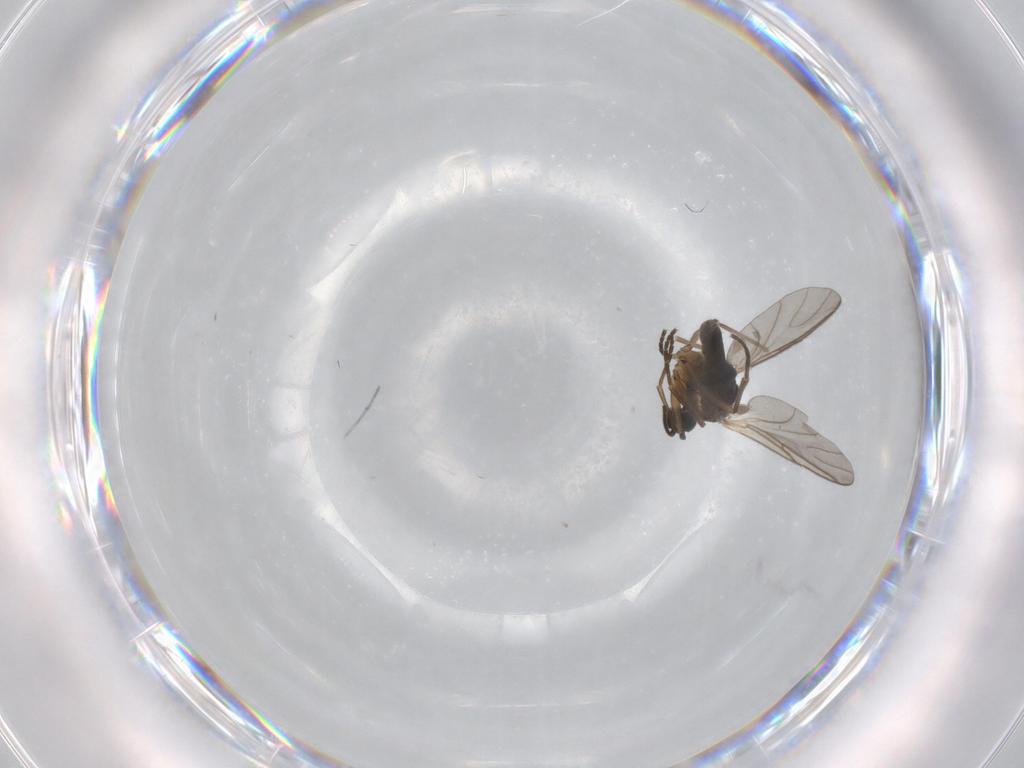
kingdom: Animalia
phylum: Arthropoda
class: Insecta
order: Diptera
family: Sciaridae
